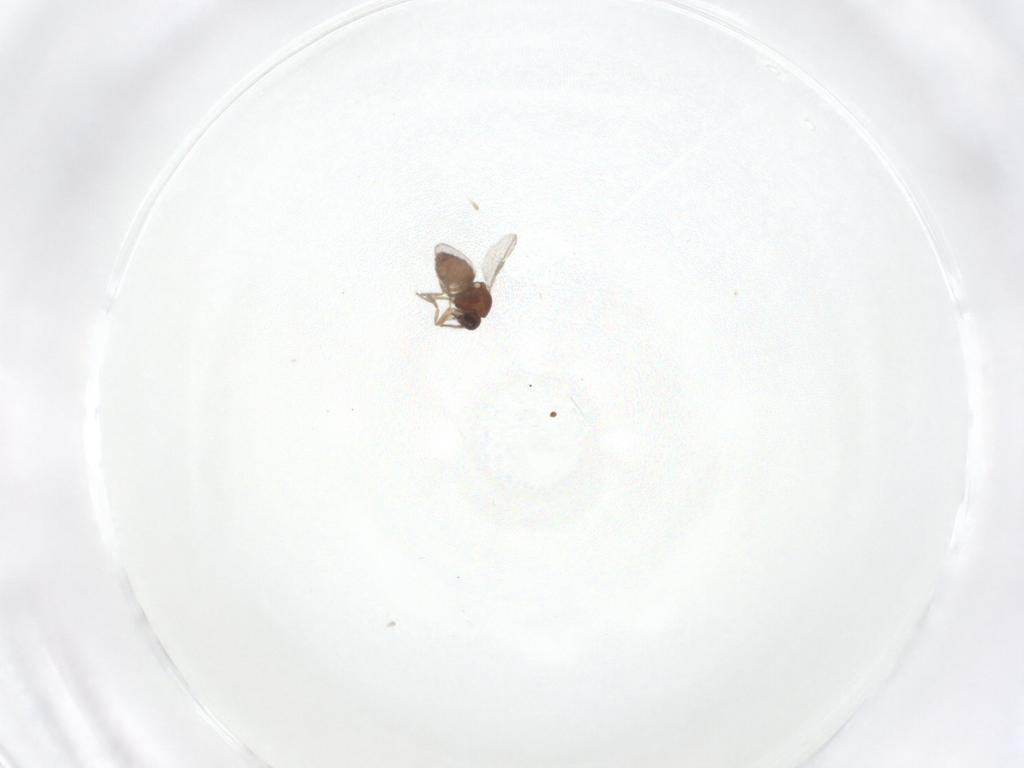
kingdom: Animalia
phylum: Arthropoda
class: Insecta
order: Diptera
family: Ceratopogonidae
